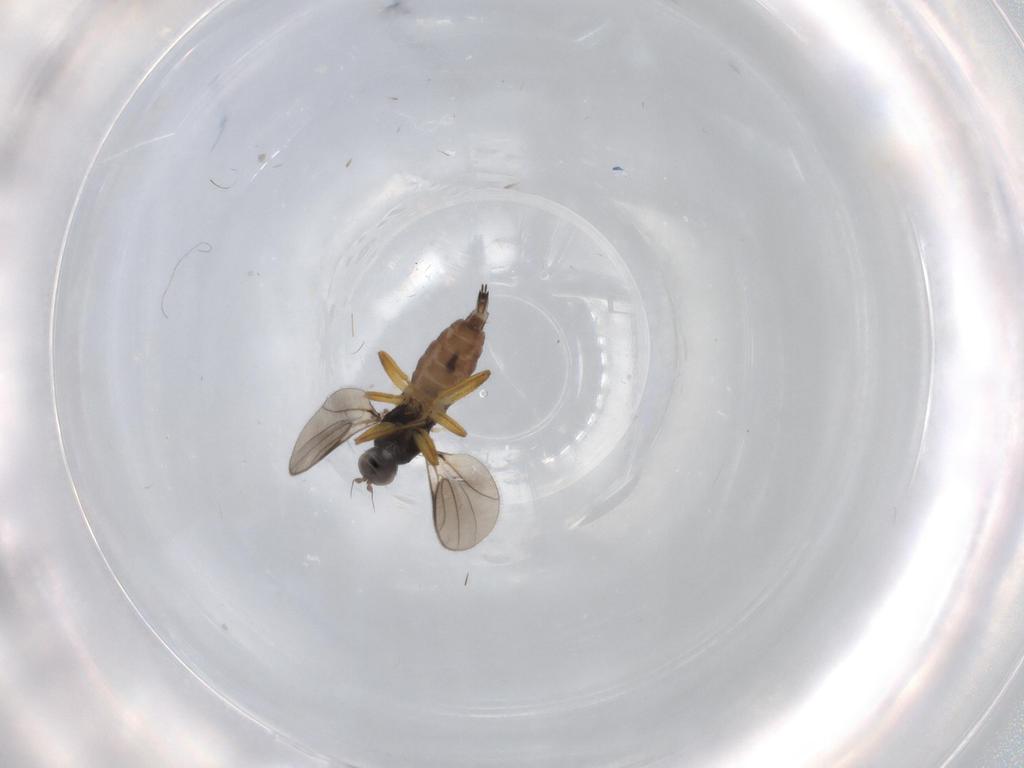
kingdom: Animalia
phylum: Arthropoda
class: Insecta
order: Diptera
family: Hybotidae
